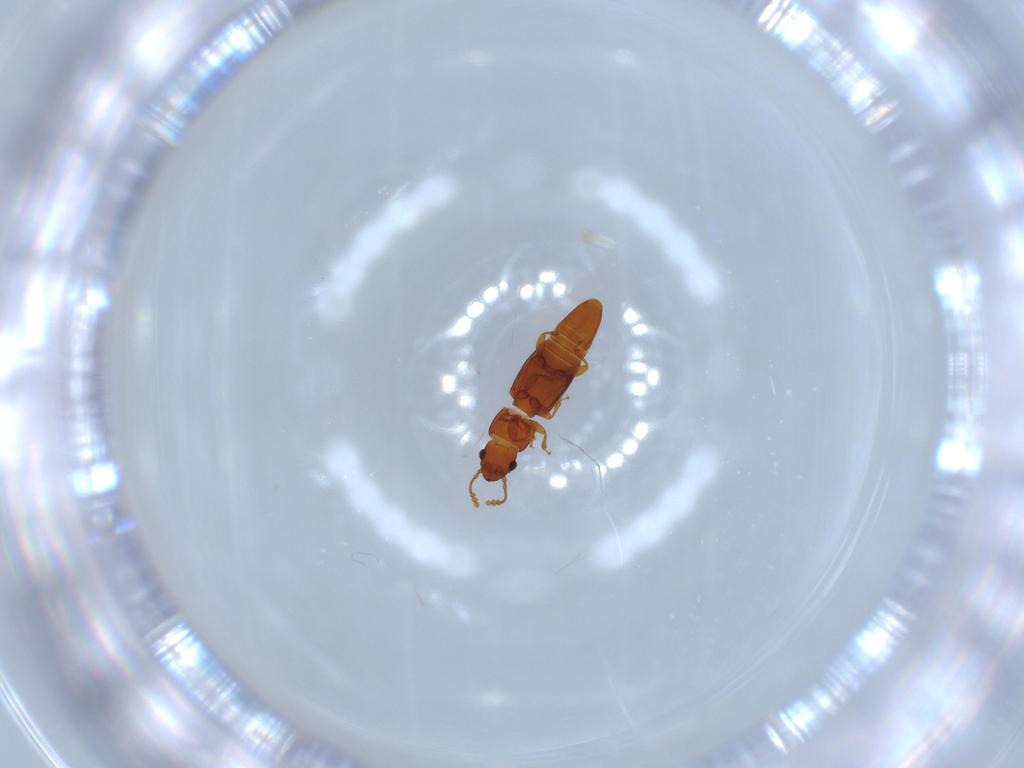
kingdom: Animalia
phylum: Arthropoda
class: Insecta
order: Coleoptera
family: Smicripidae
